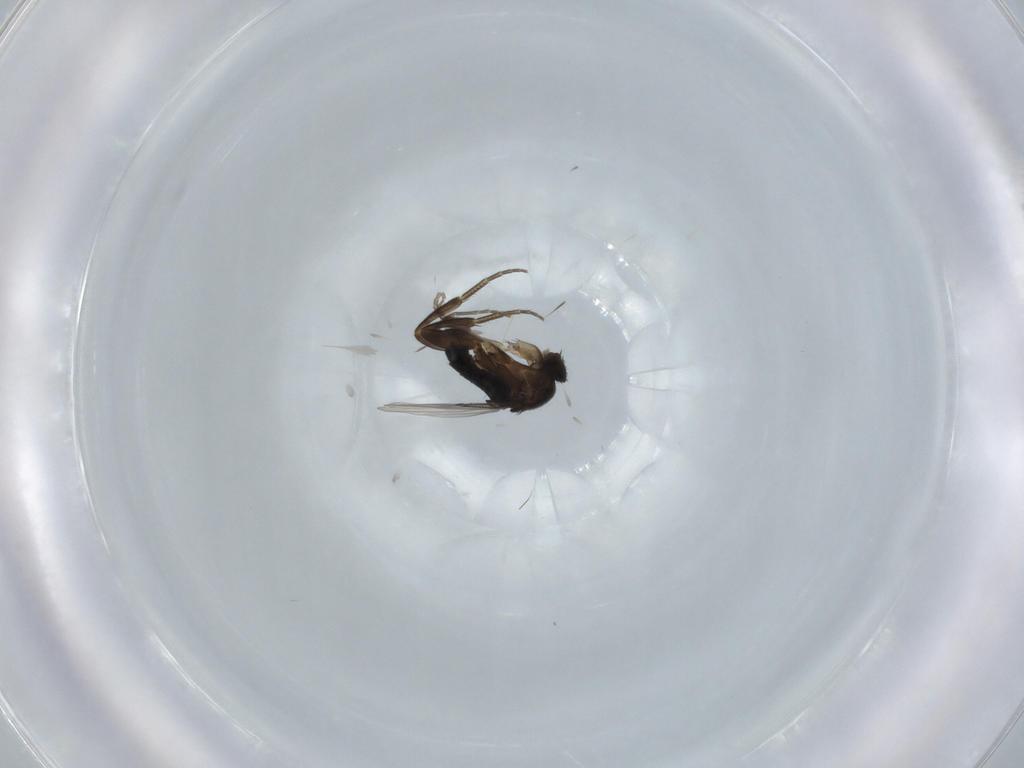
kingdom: Animalia
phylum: Arthropoda
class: Insecta
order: Diptera
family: Phoridae
